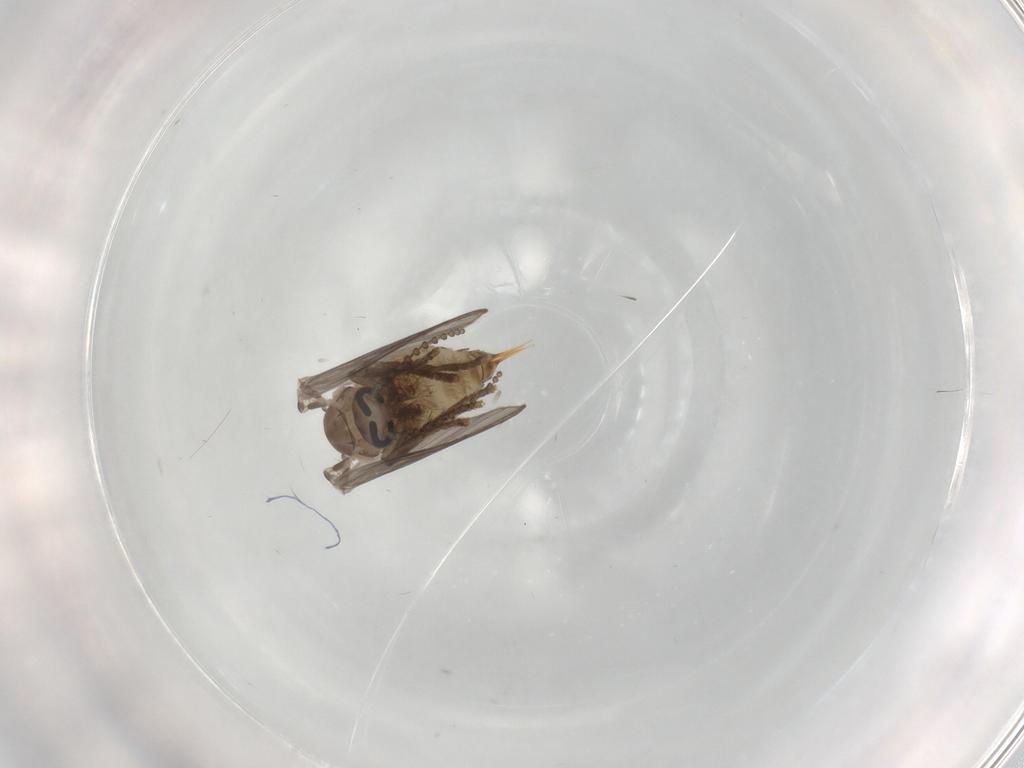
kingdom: Animalia
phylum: Arthropoda
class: Insecta
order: Diptera
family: Psychodidae
